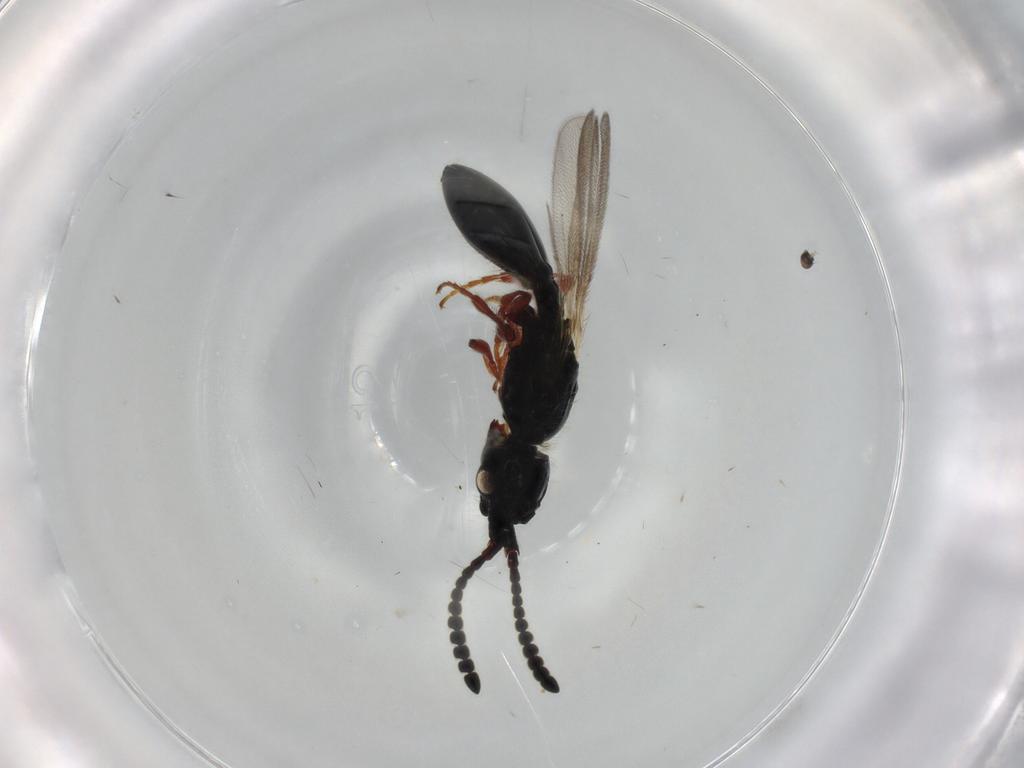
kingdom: Animalia
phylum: Arthropoda
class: Insecta
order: Hymenoptera
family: Diapriidae
